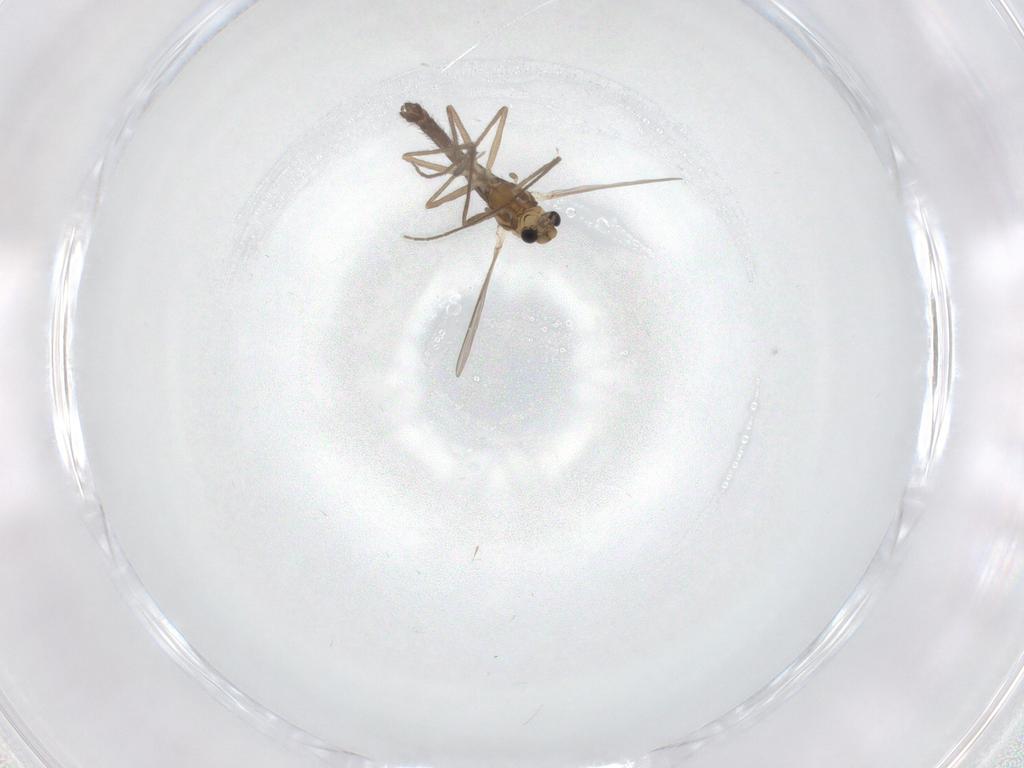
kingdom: Animalia
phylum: Arthropoda
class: Insecta
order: Diptera
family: Chironomidae
